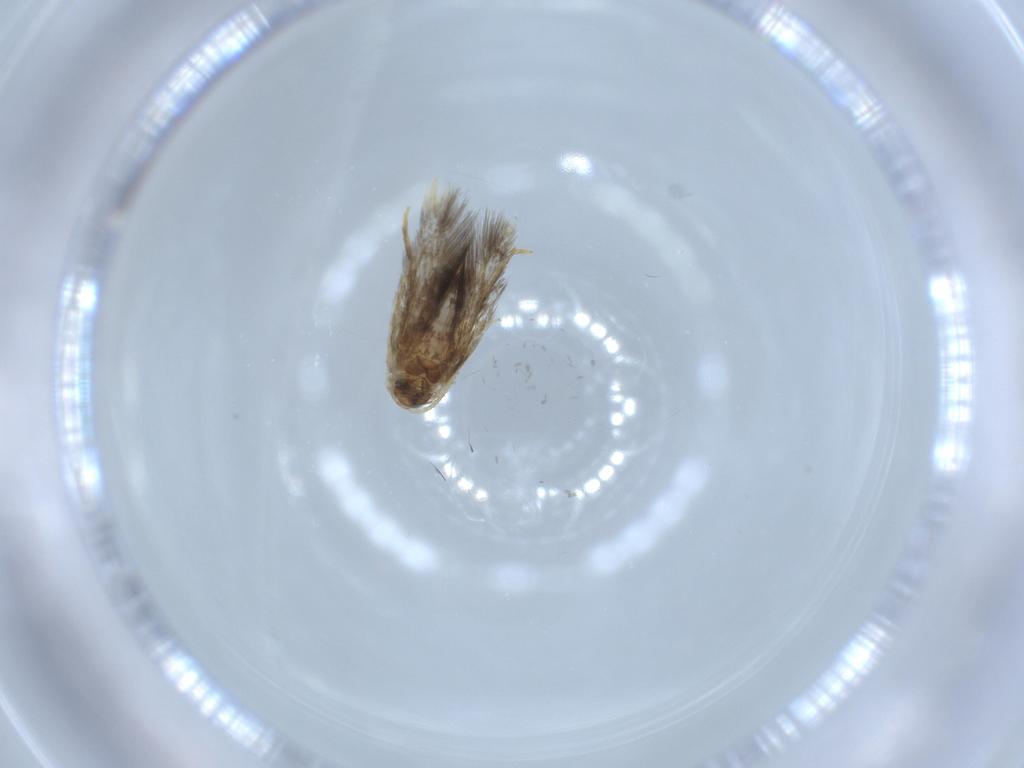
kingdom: Animalia
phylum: Arthropoda
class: Insecta
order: Lepidoptera
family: Copromorphidae
